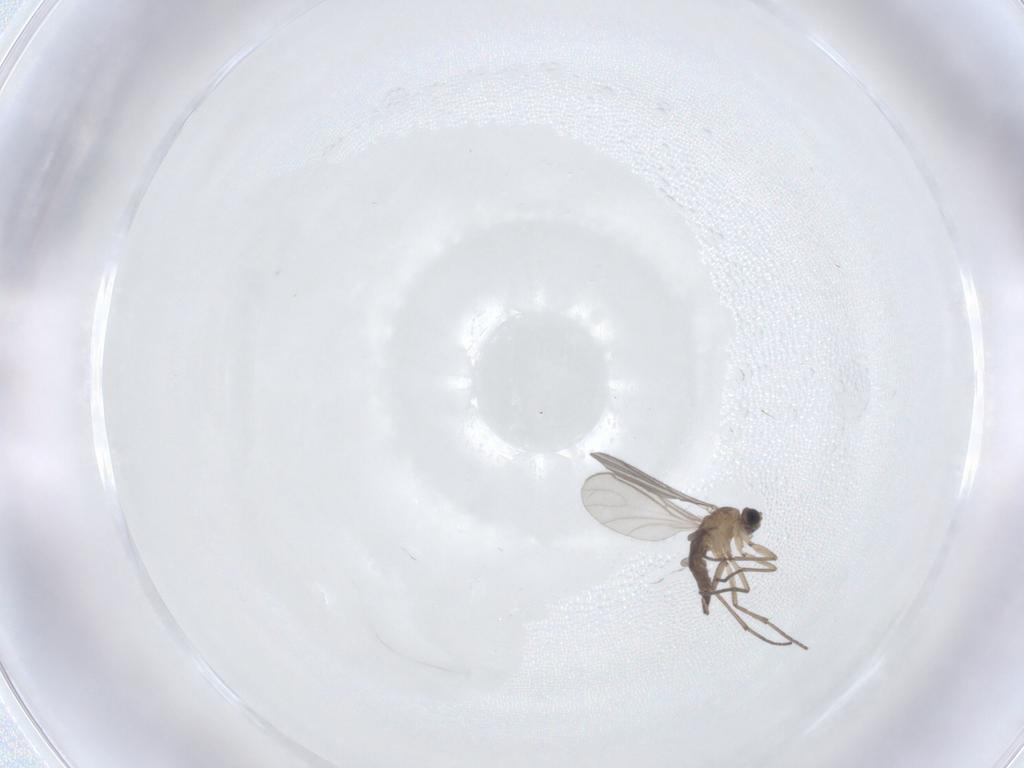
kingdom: Animalia
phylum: Arthropoda
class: Insecta
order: Diptera
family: Sciaridae
